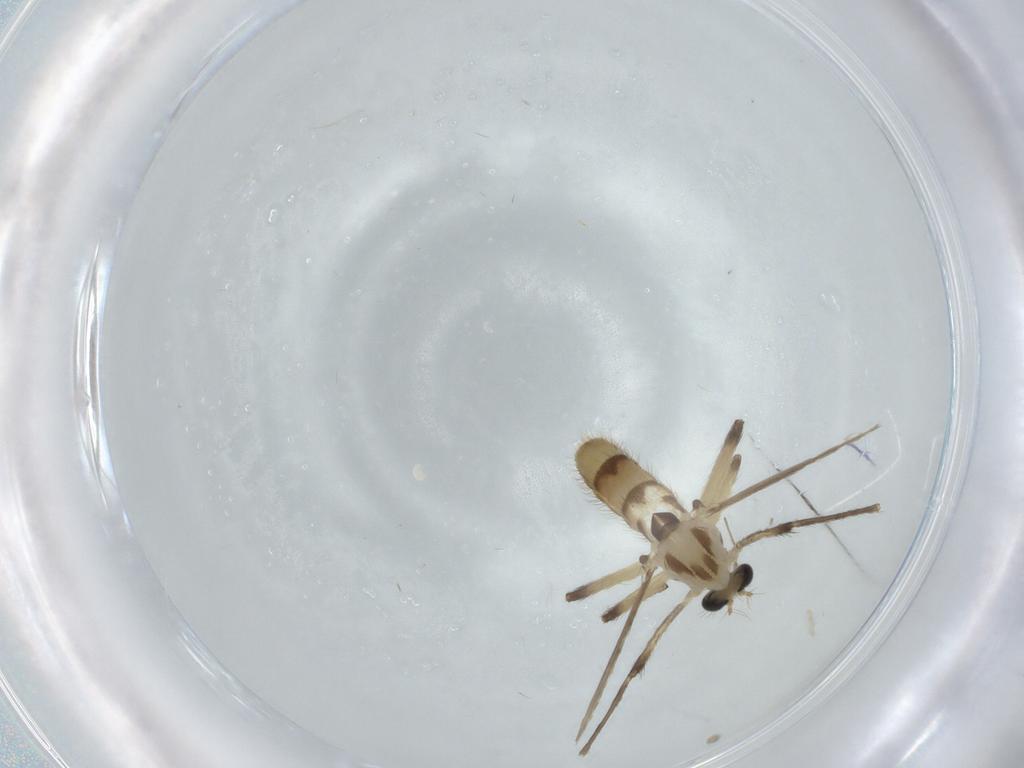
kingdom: Animalia
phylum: Arthropoda
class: Insecta
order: Diptera
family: Chironomidae
